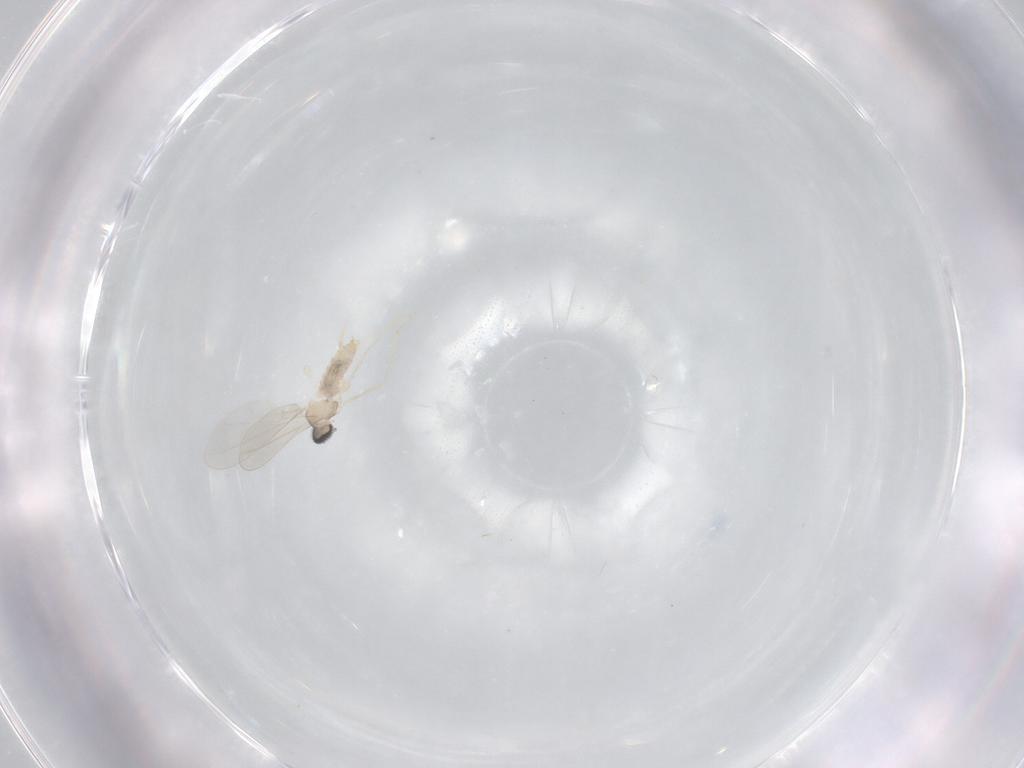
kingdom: Animalia
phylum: Arthropoda
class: Insecta
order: Diptera
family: Cecidomyiidae
